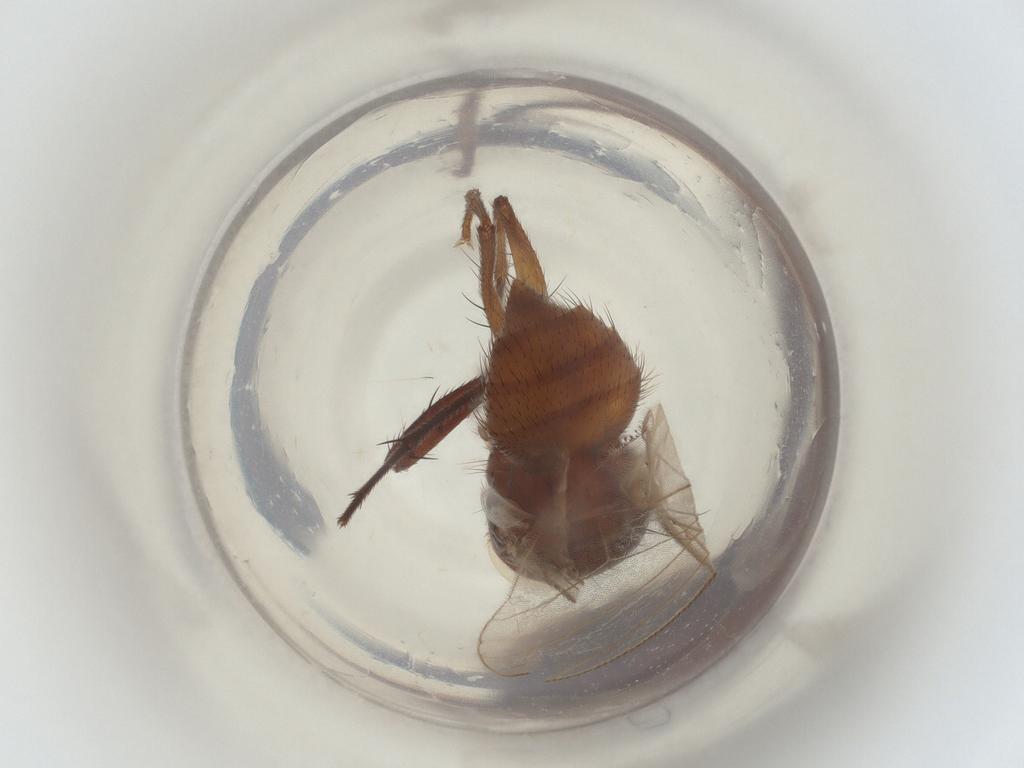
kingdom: Animalia
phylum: Arthropoda
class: Insecta
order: Diptera
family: Muscidae
